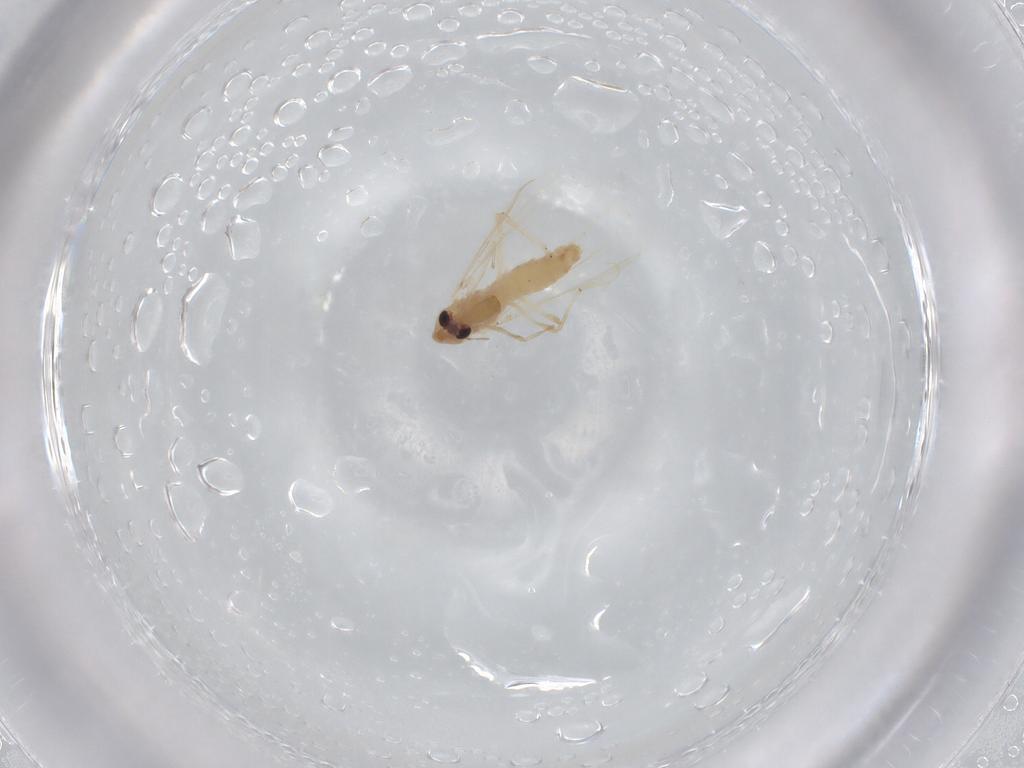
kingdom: Animalia
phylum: Arthropoda
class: Insecta
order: Diptera
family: Chironomidae
